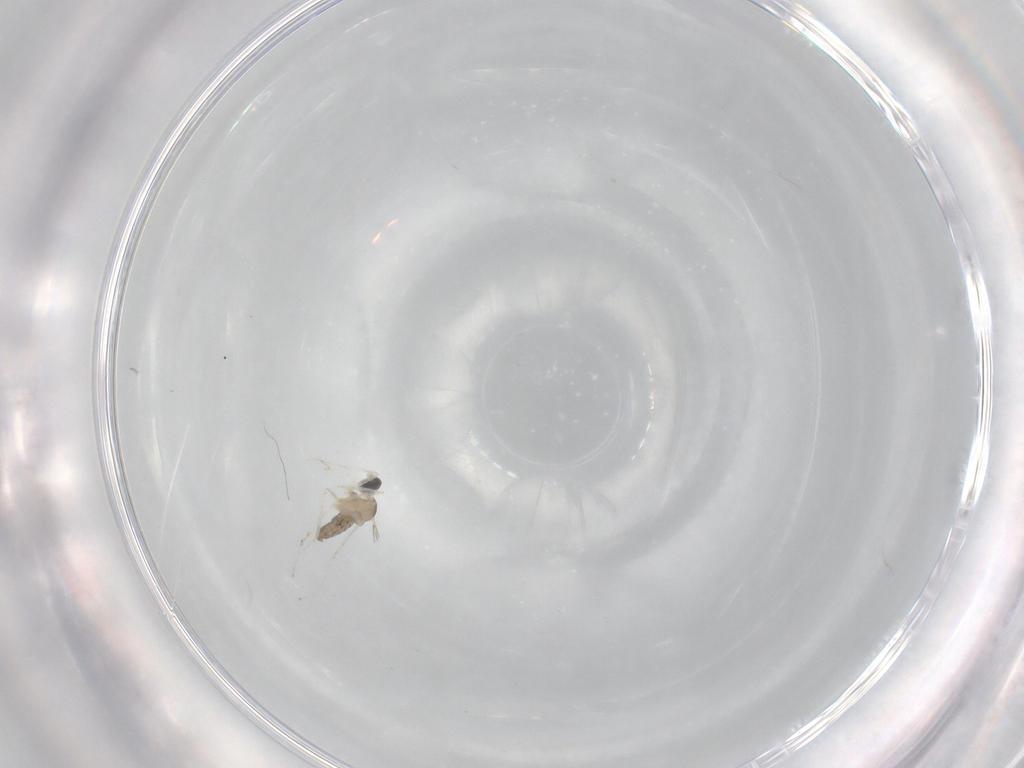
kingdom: Animalia
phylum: Arthropoda
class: Insecta
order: Diptera
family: Cecidomyiidae
